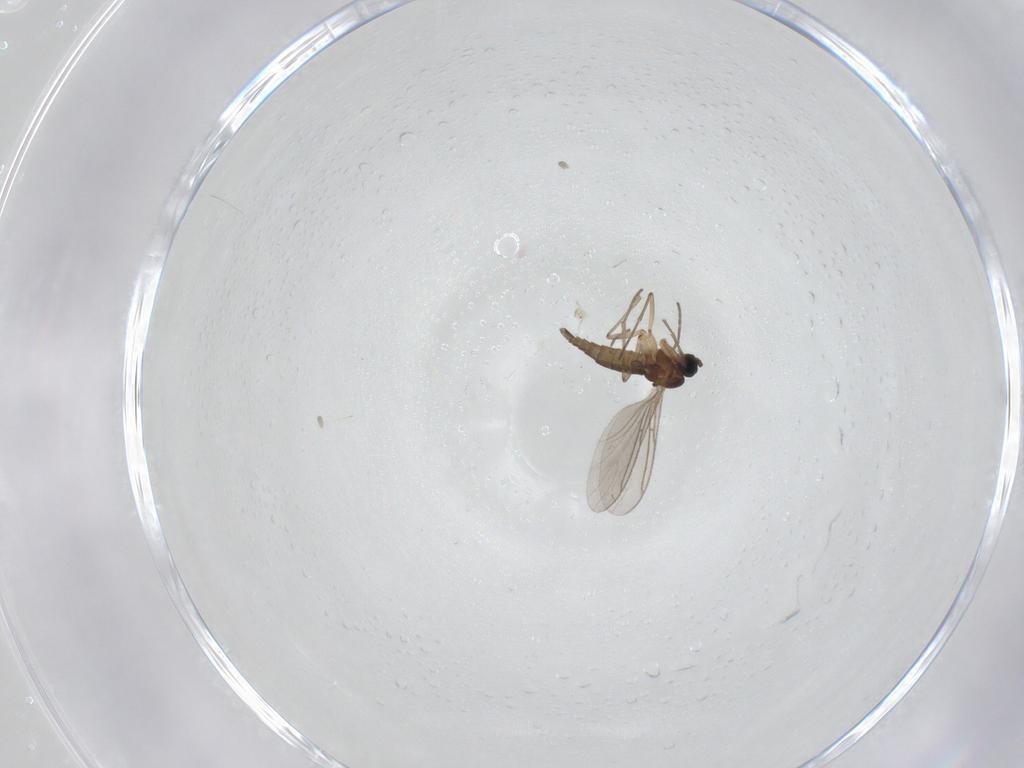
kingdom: Animalia
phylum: Arthropoda
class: Insecta
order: Diptera
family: Sciaridae
